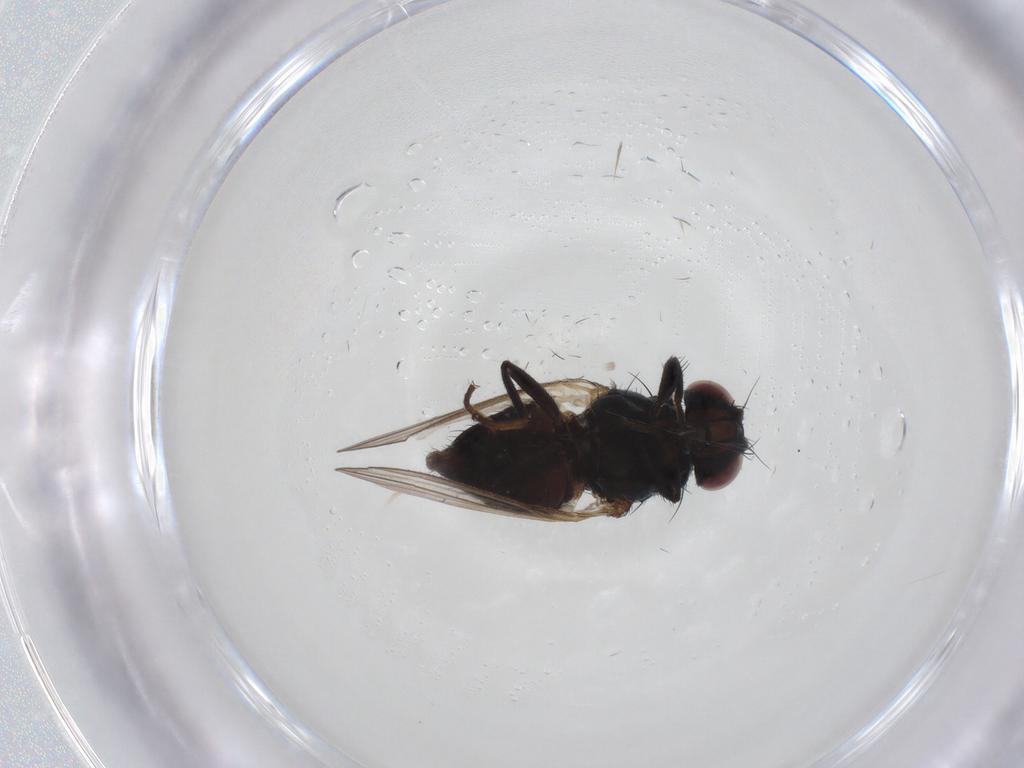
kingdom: Animalia
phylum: Arthropoda
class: Insecta
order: Diptera
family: Carnidae
